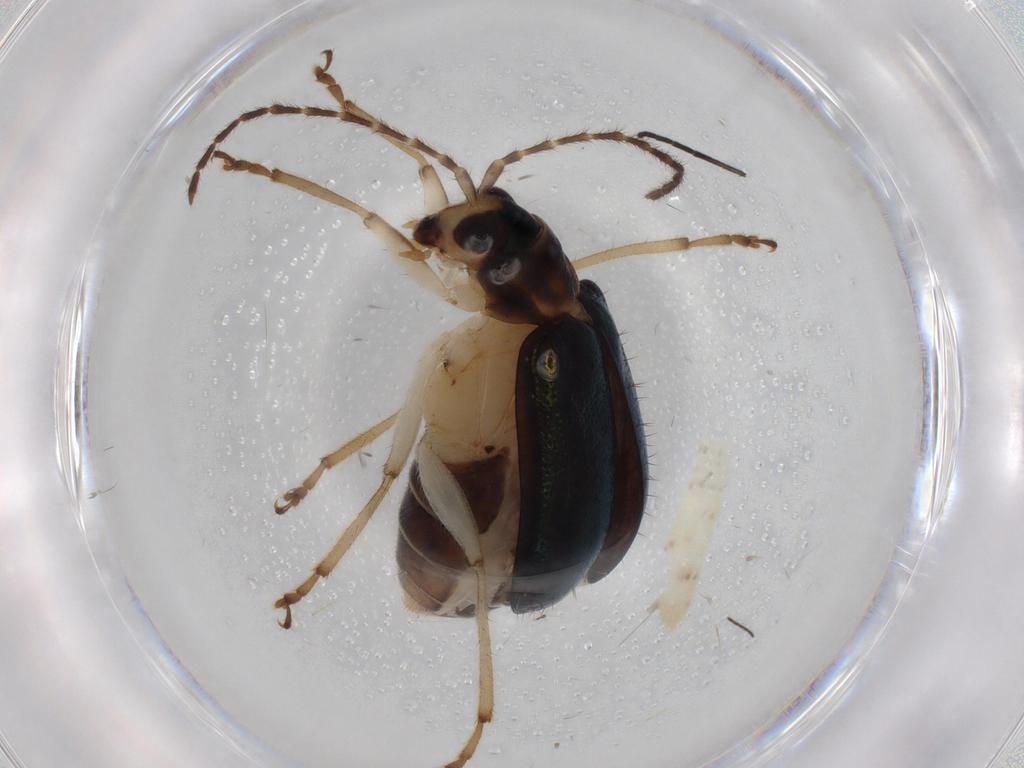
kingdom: Animalia
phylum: Arthropoda
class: Insecta
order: Coleoptera
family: Chrysomelidae
